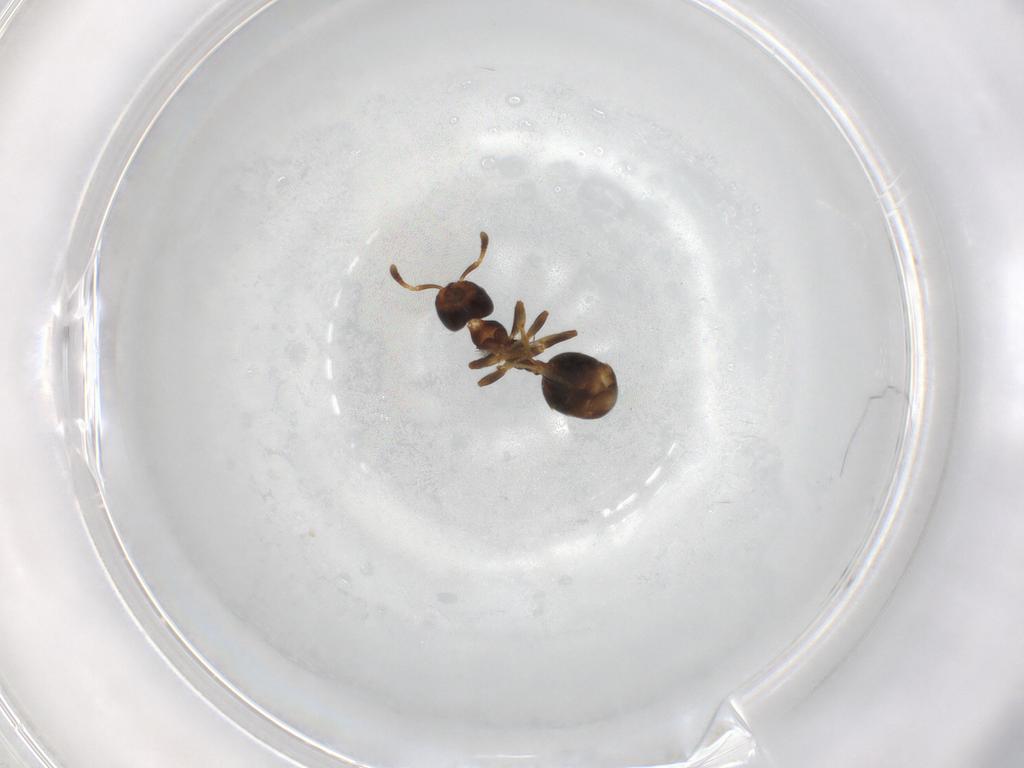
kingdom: Animalia
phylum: Arthropoda
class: Insecta
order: Hymenoptera
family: Formicidae
